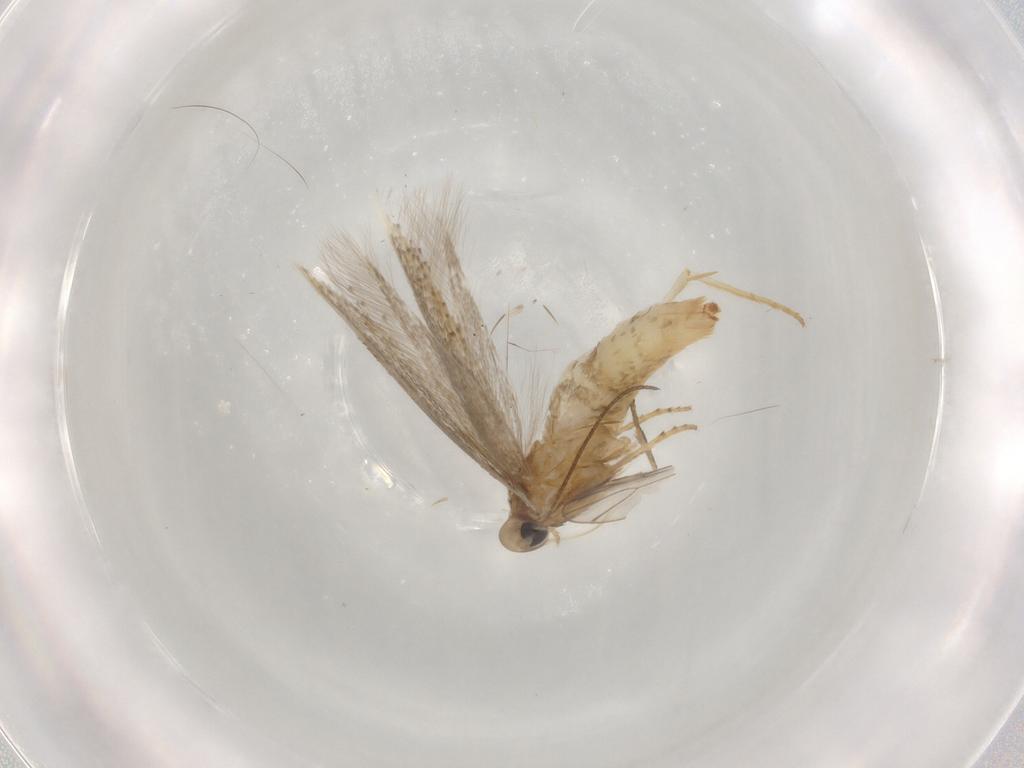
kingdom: Animalia
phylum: Arthropoda
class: Insecta
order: Lepidoptera
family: Tischeriidae
